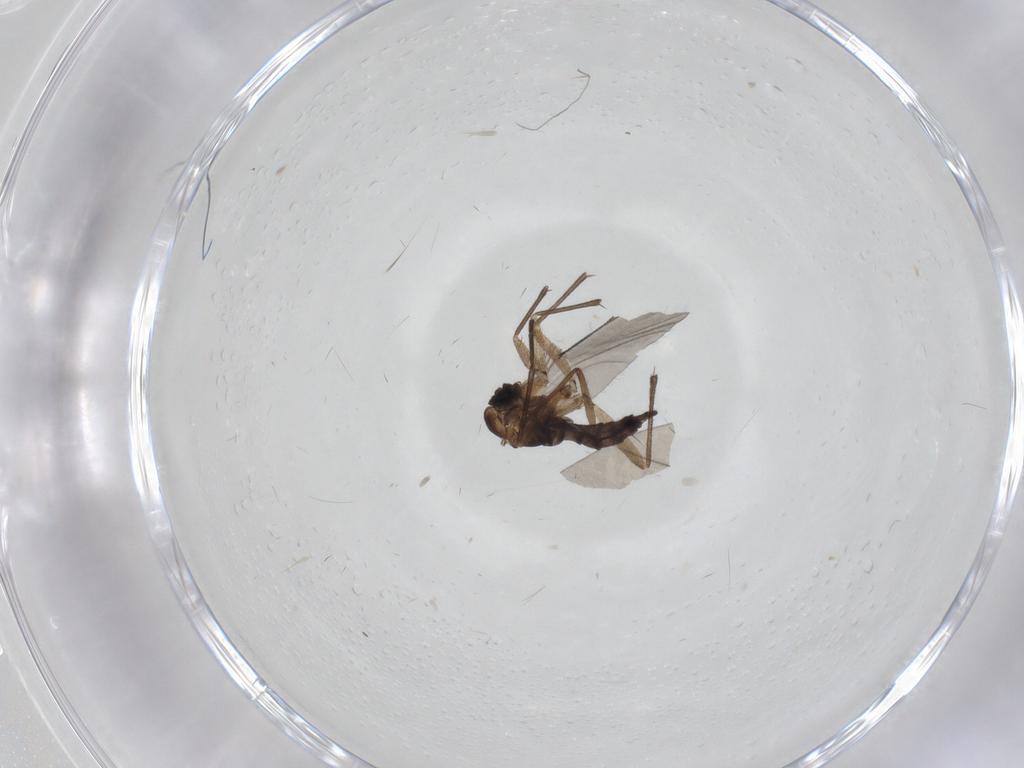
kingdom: Animalia
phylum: Arthropoda
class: Insecta
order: Diptera
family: Sciaridae
